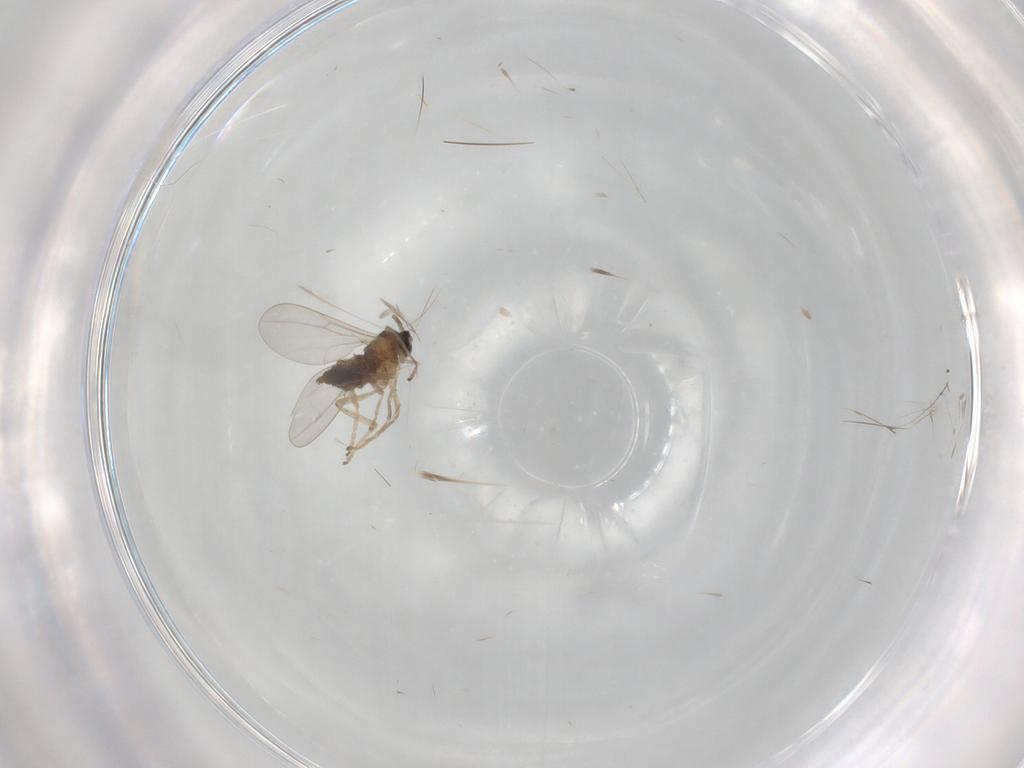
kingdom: Animalia
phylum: Arthropoda
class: Insecta
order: Diptera
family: Cecidomyiidae
